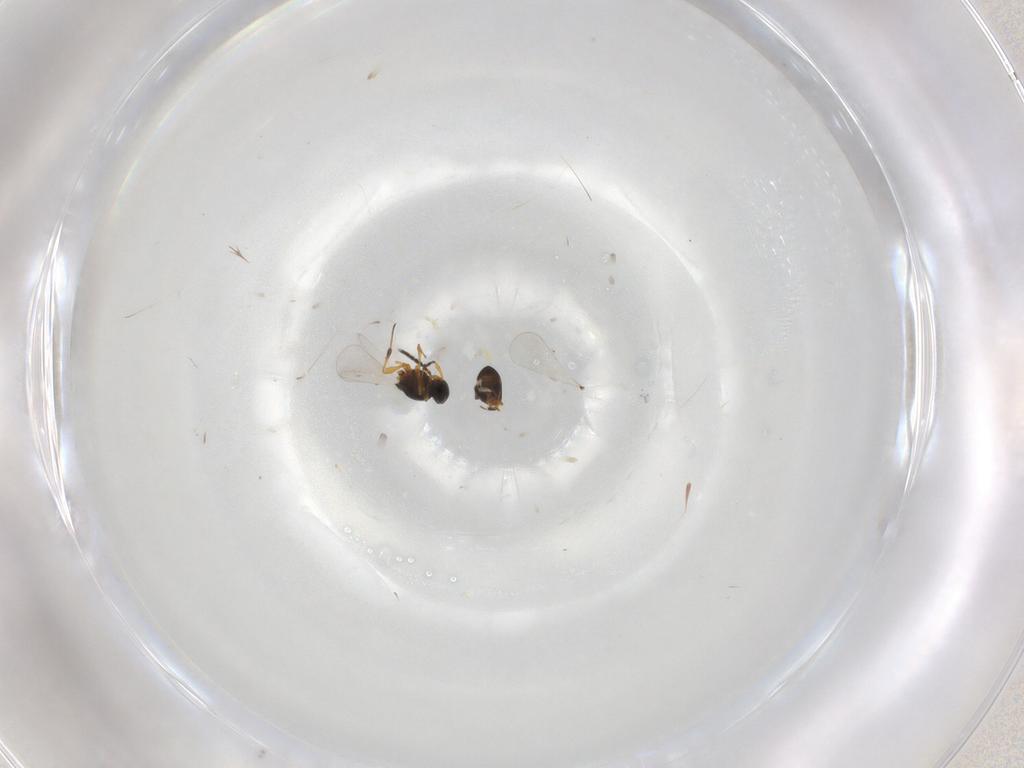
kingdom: Animalia
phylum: Arthropoda
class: Insecta
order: Hymenoptera
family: Platygastridae
